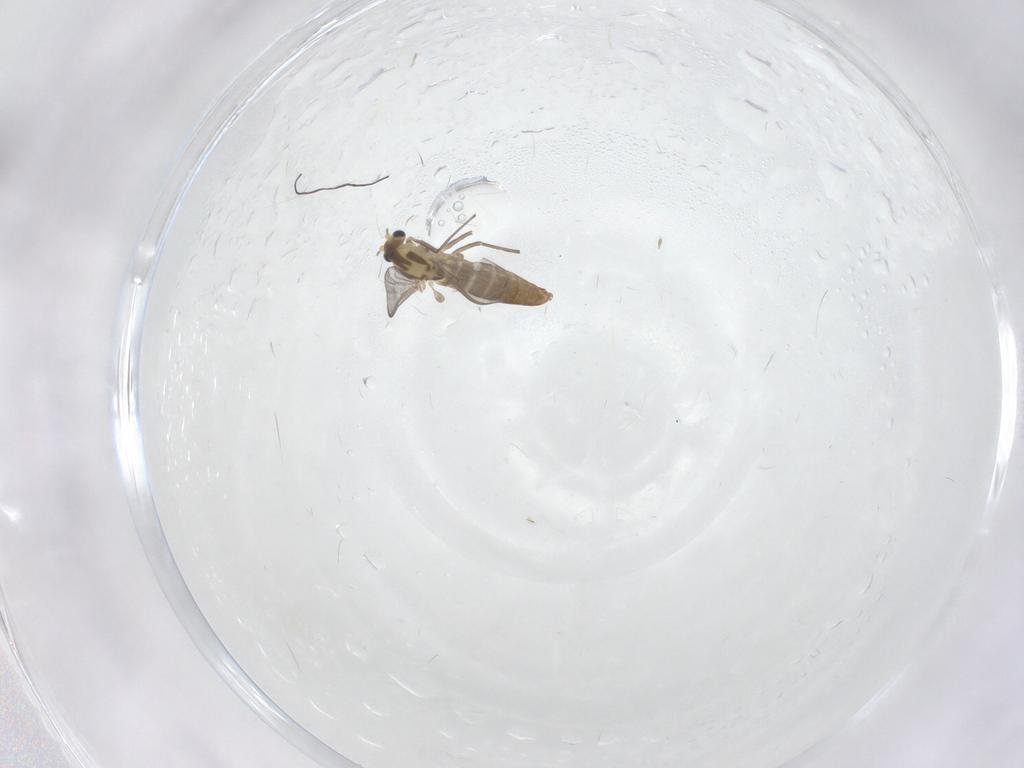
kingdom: Animalia
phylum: Arthropoda
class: Insecta
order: Diptera
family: Chironomidae
